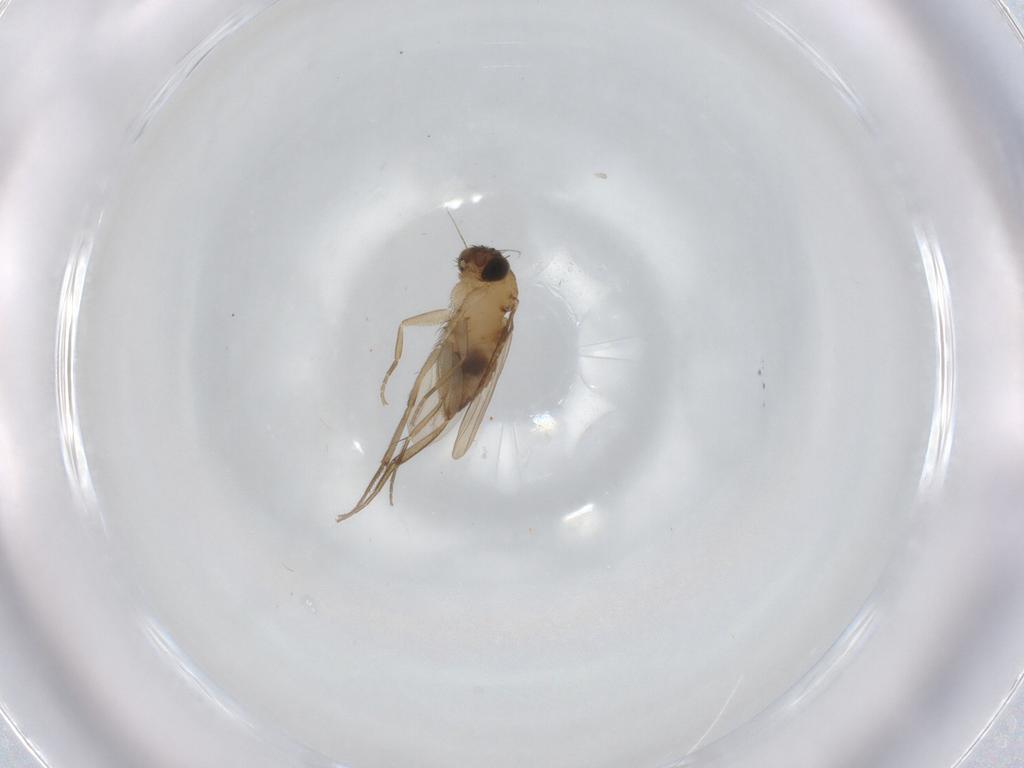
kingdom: Animalia
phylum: Arthropoda
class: Insecta
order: Diptera
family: Phoridae
